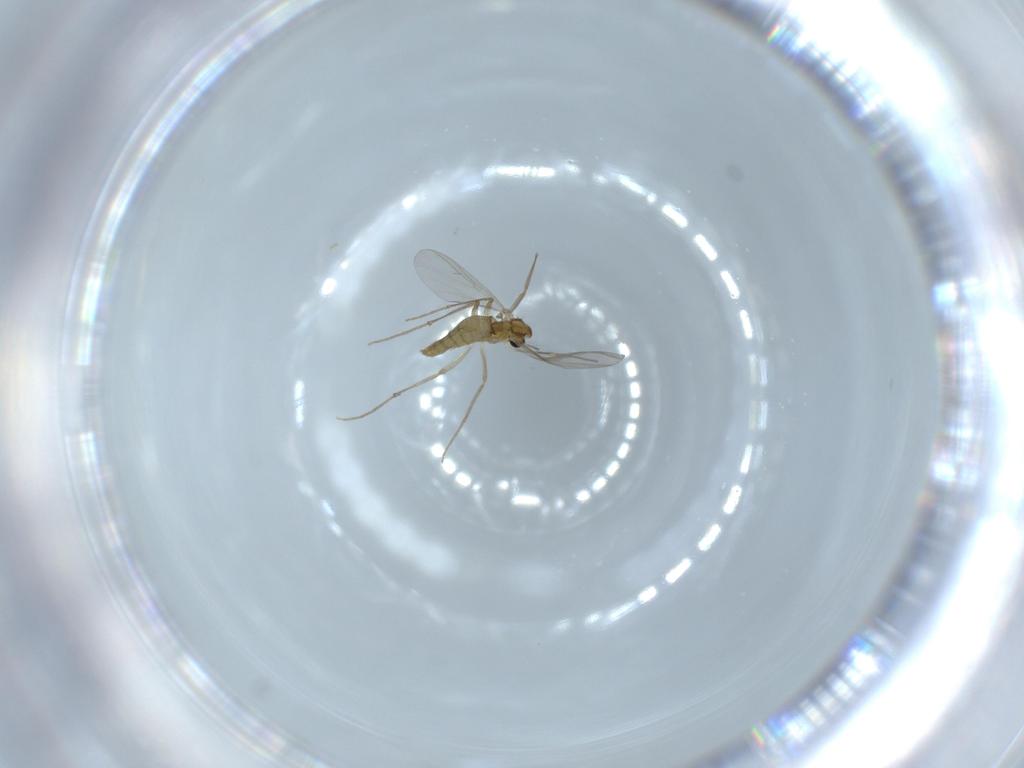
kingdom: Animalia
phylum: Arthropoda
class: Insecta
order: Diptera
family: Chironomidae
